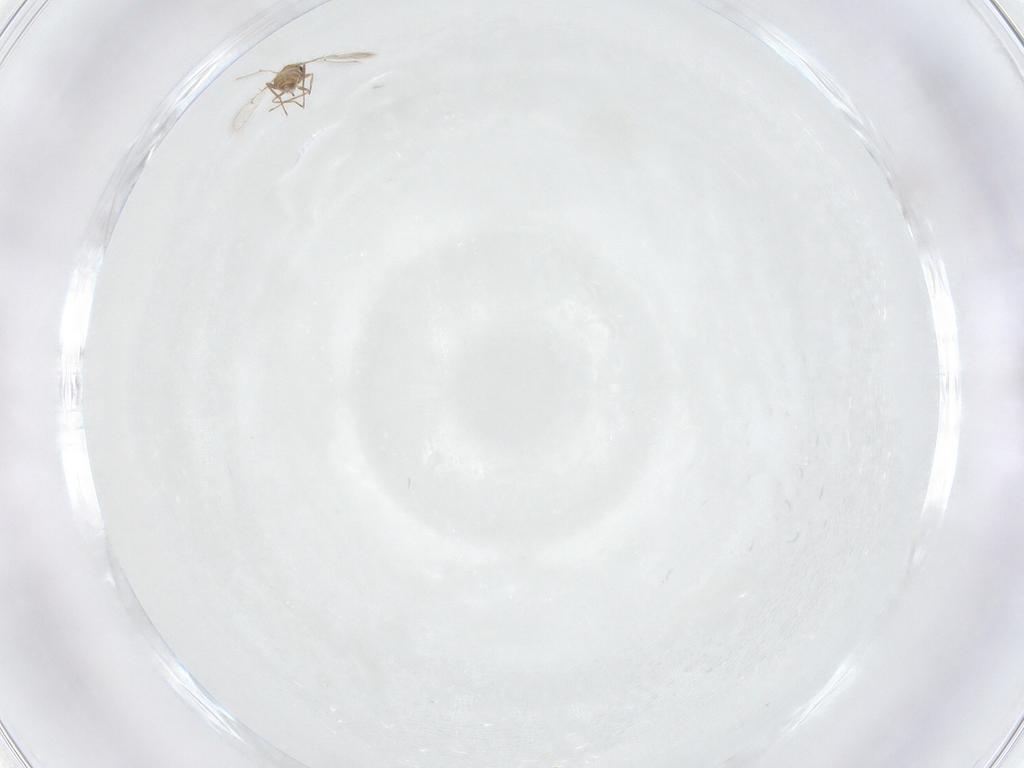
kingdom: Animalia
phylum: Arthropoda
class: Insecta
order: Hymenoptera
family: Trichogrammatidae
